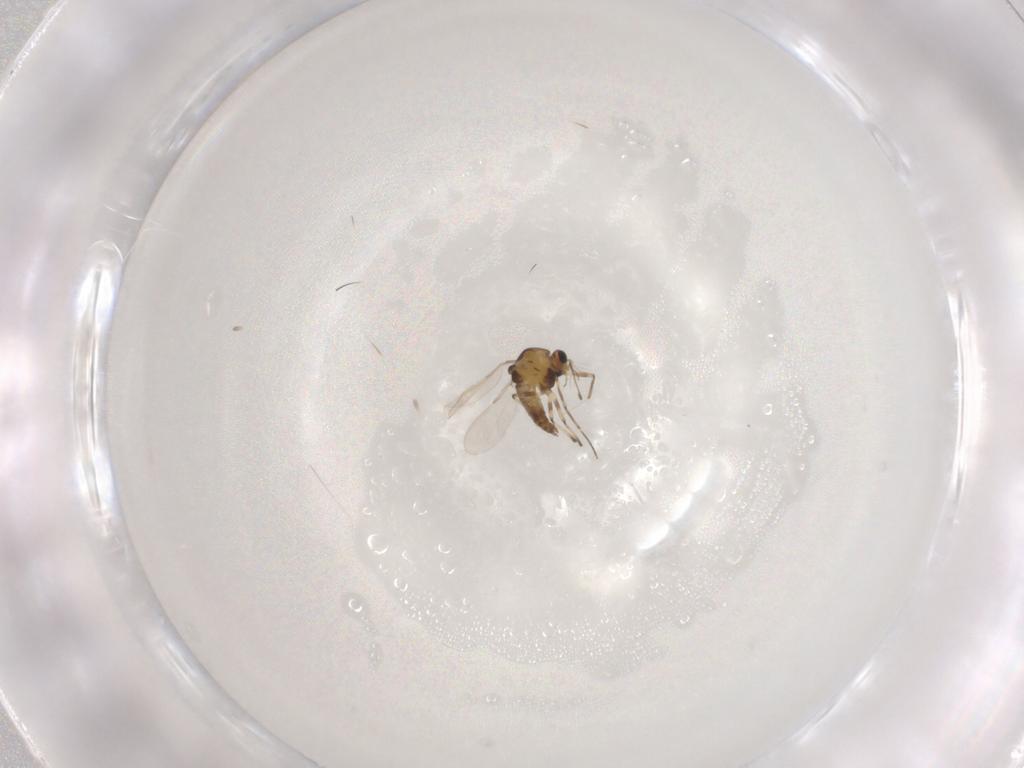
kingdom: Animalia
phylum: Arthropoda
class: Insecta
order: Diptera
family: Chironomidae
